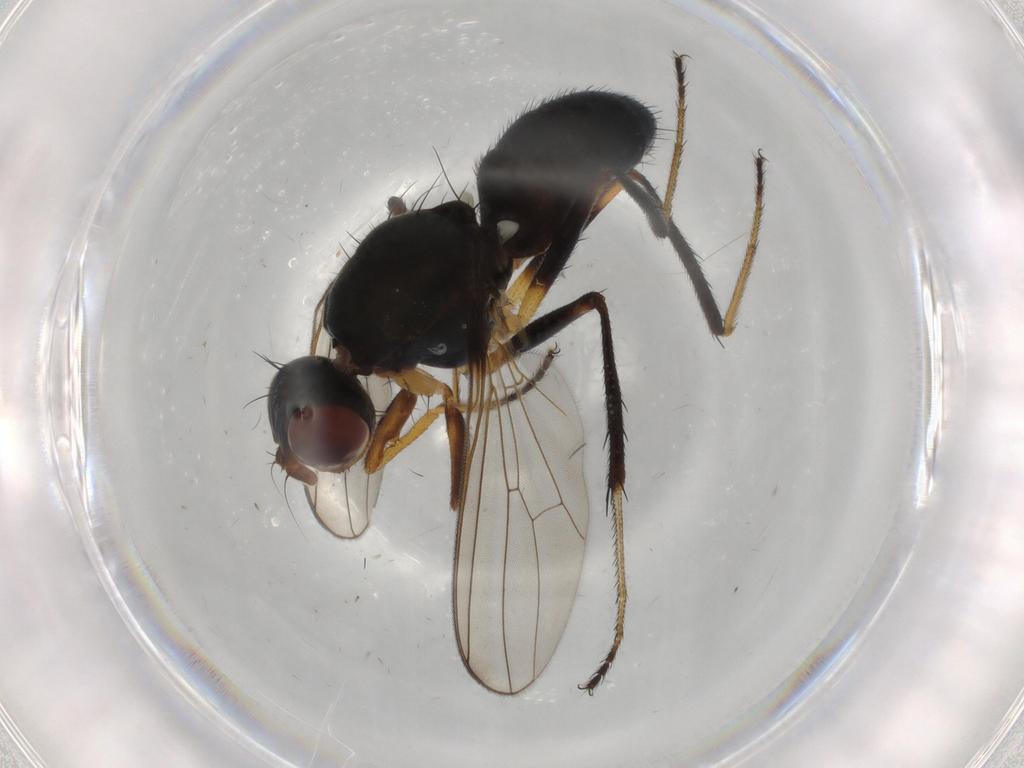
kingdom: Animalia
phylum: Arthropoda
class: Insecta
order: Diptera
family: Sepsidae
